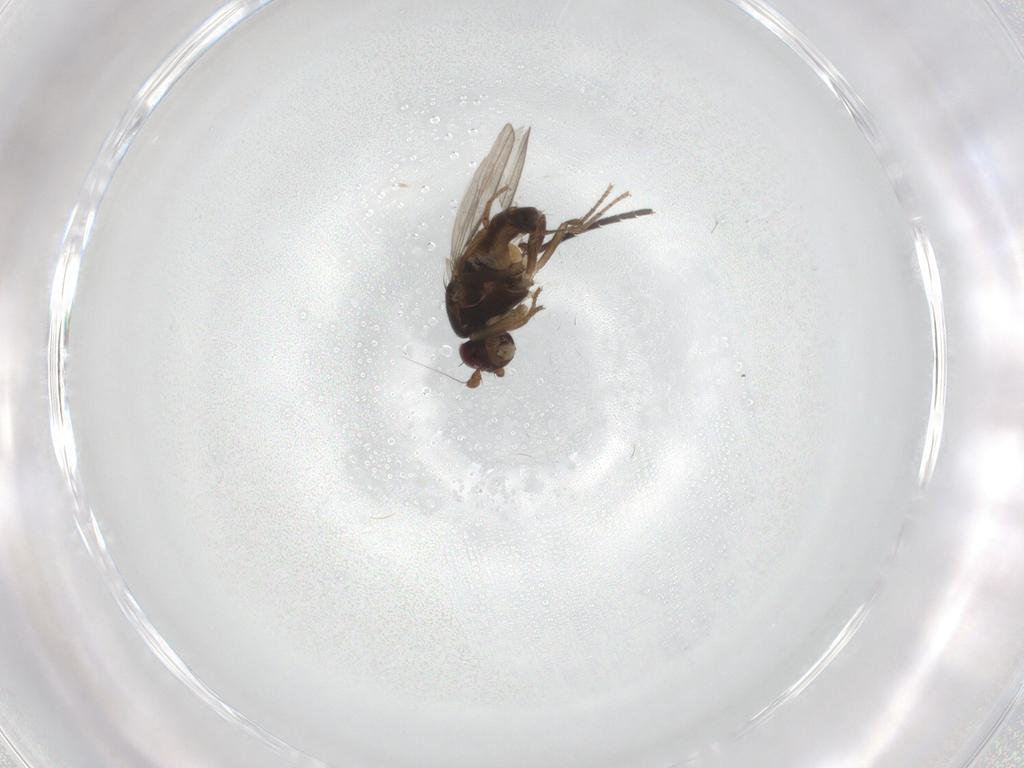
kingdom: Animalia
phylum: Arthropoda
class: Insecta
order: Diptera
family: Sphaeroceridae
